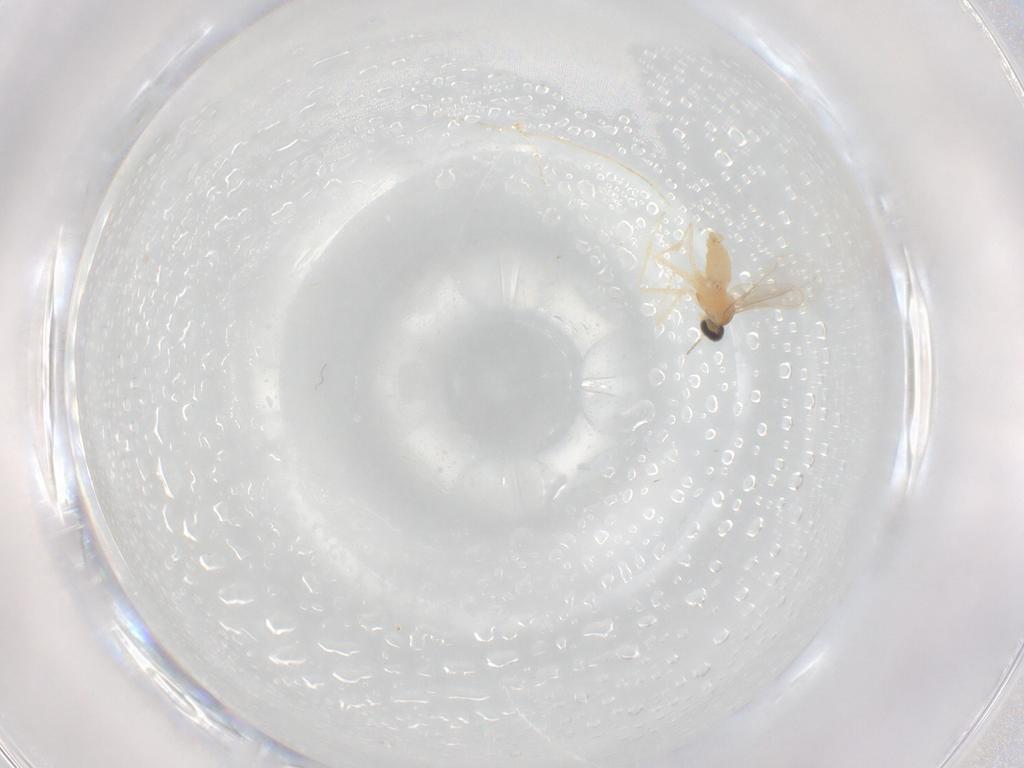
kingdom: Animalia
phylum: Arthropoda
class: Insecta
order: Diptera
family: Cecidomyiidae
